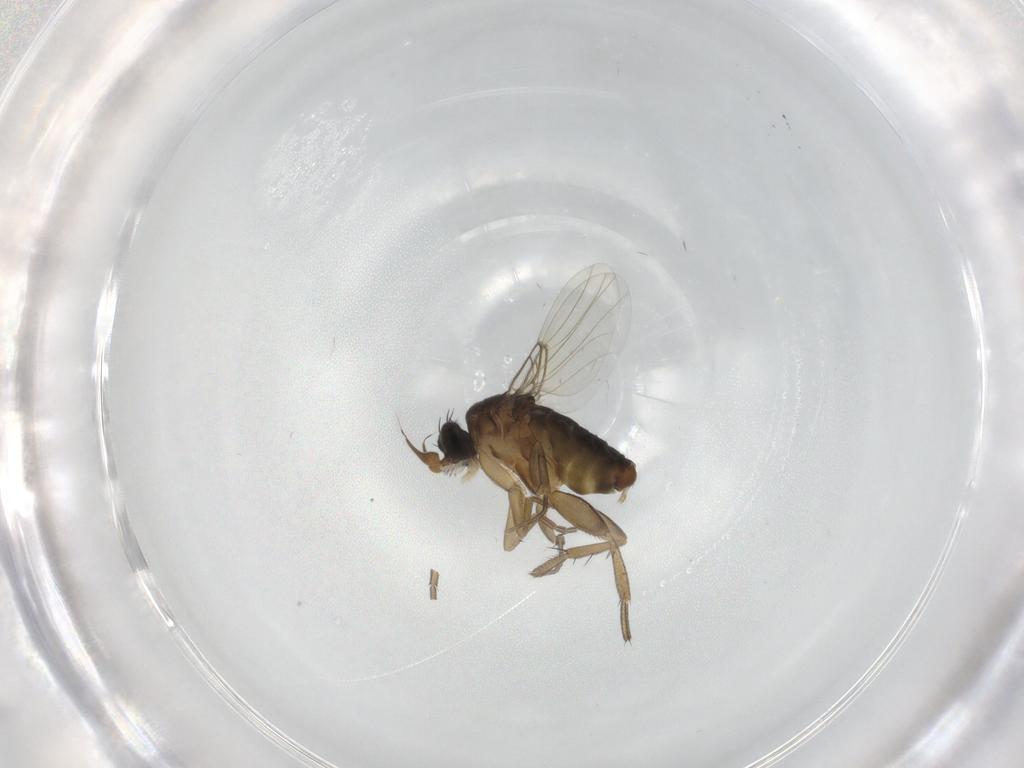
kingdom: Animalia
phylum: Arthropoda
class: Insecta
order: Diptera
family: Phoridae
